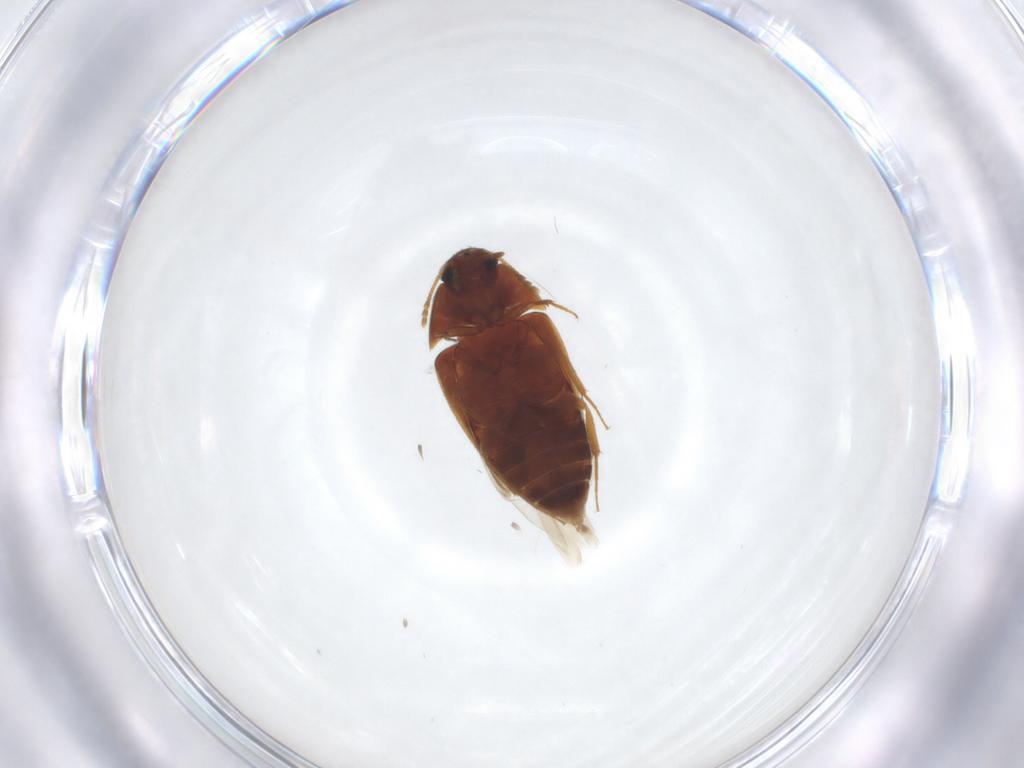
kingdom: Animalia
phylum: Arthropoda
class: Insecta
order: Coleoptera
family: Mycetophagidae
